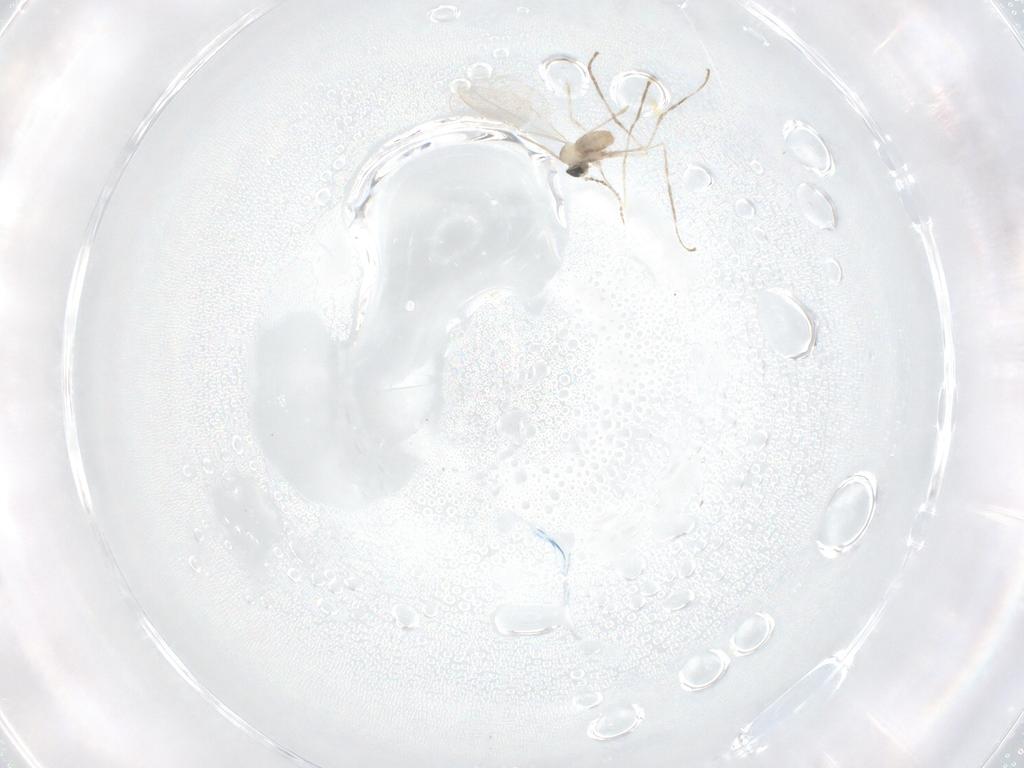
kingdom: Animalia
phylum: Arthropoda
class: Insecta
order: Diptera
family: Cecidomyiidae
